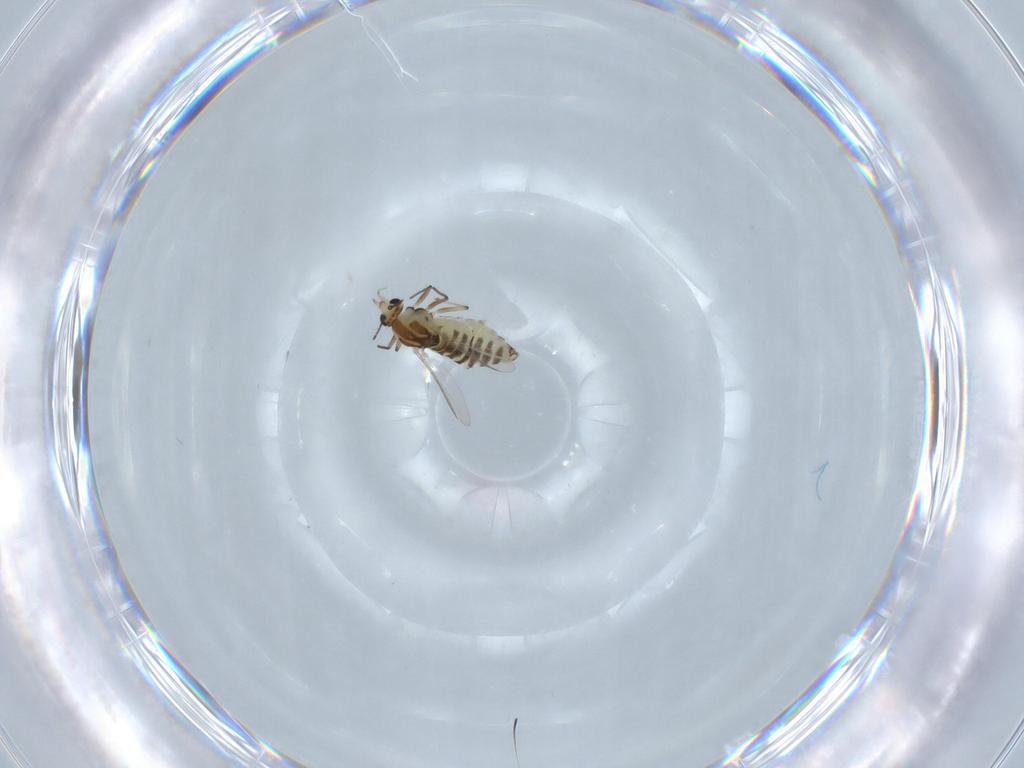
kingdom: Animalia
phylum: Arthropoda
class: Insecta
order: Diptera
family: Chironomidae
